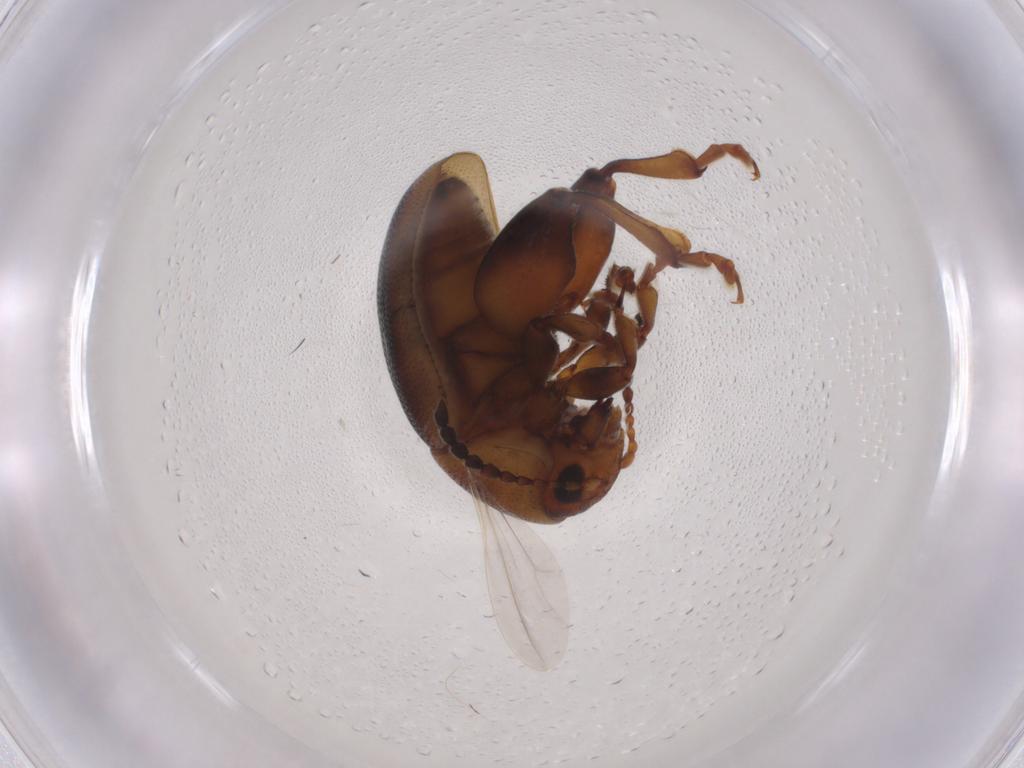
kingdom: Animalia
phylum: Arthropoda
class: Insecta
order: Coleoptera
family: Chrysomelidae
